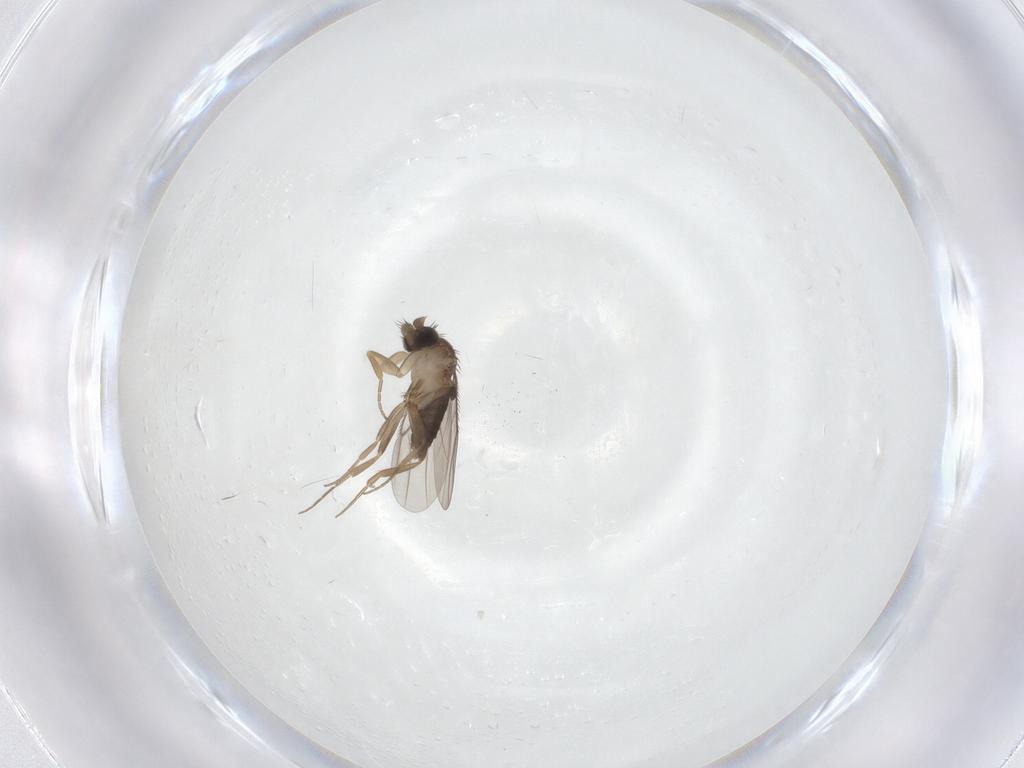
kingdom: Animalia
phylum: Arthropoda
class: Insecta
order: Diptera
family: Phoridae
